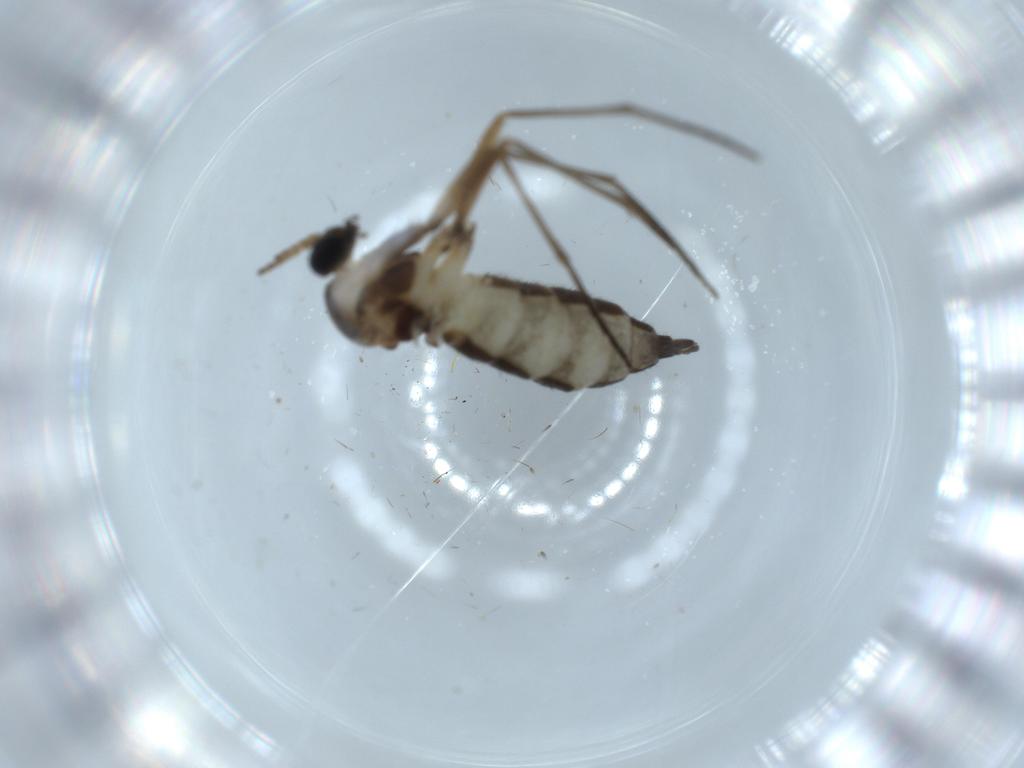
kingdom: Animalia
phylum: Arthropoda
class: Insecta
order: Diptera
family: Sciaridae
